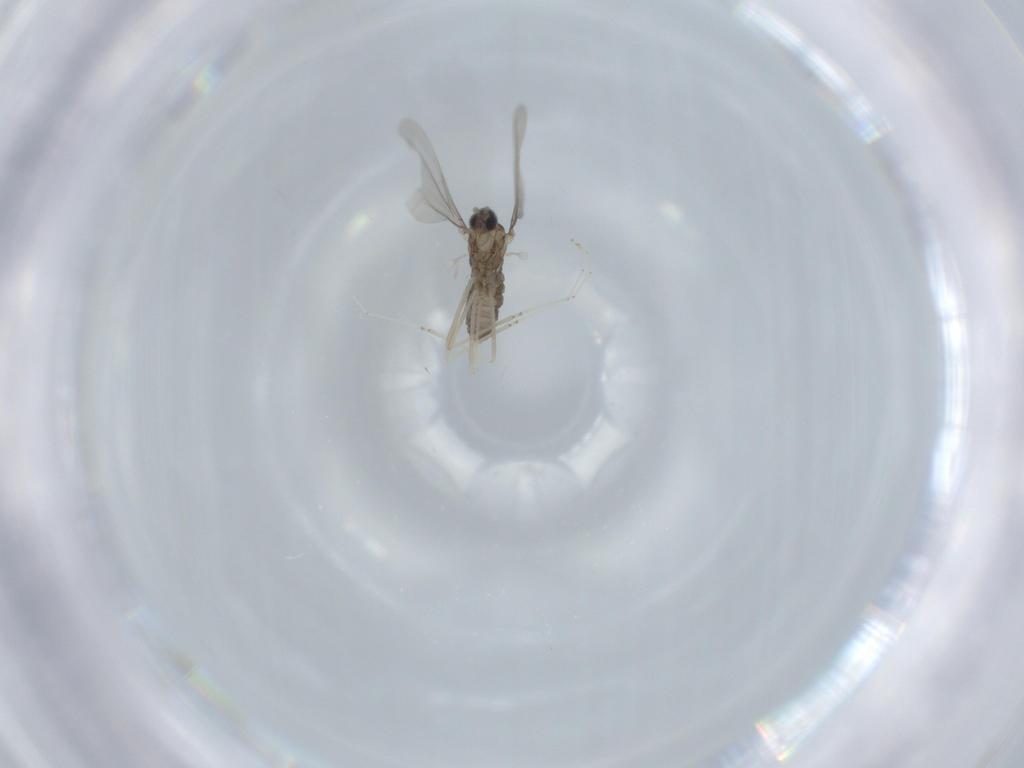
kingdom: Animalia
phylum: Arthropoda
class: Insecta
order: Diptera
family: Cecidomyiidae
